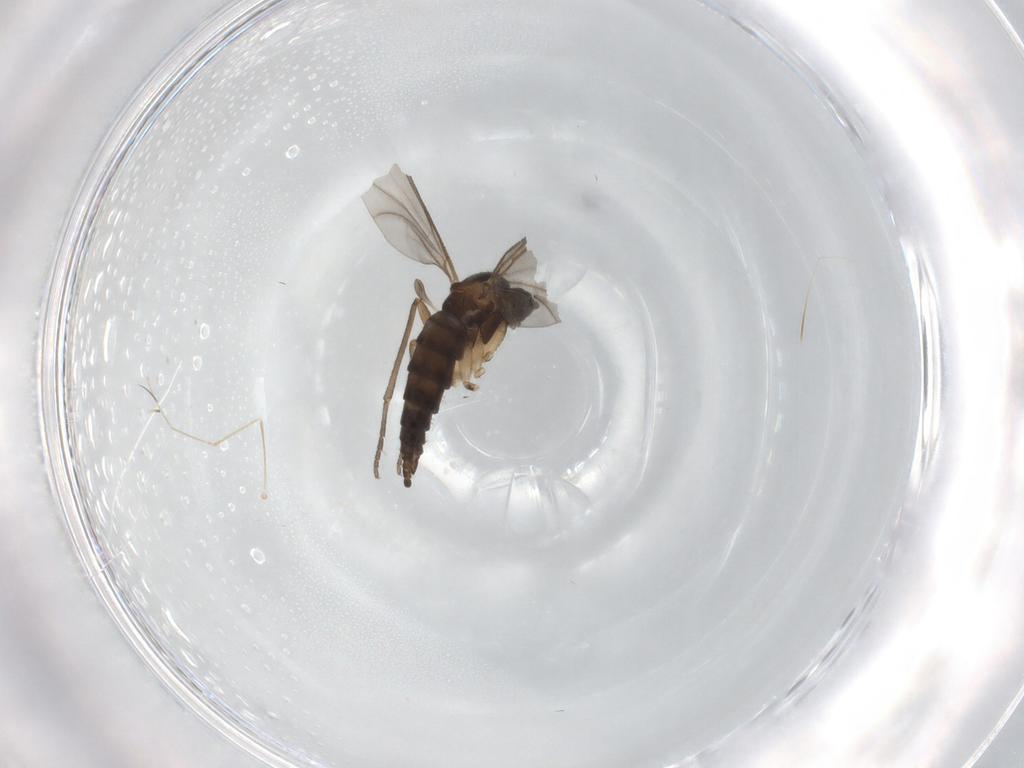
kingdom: Animalia
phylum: Arthropoda
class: Insecta
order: Diptera
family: Sciaridae
